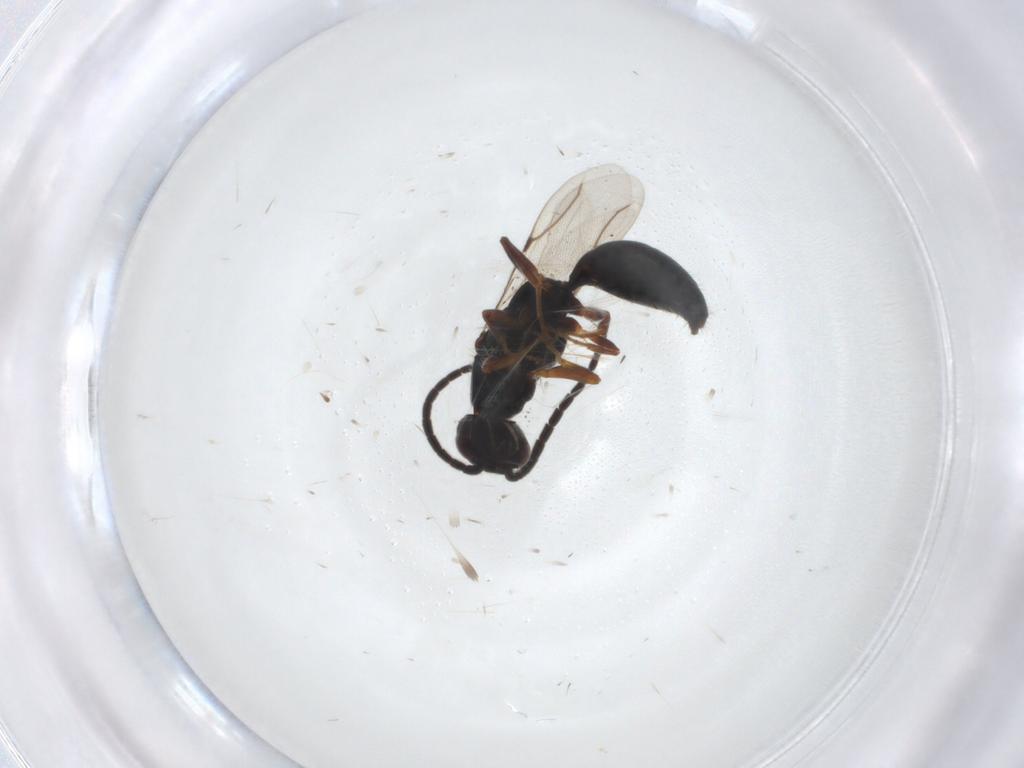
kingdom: Animalia
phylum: Arthropoda
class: Insecta
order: Hymenoptera
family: Bethylidae
